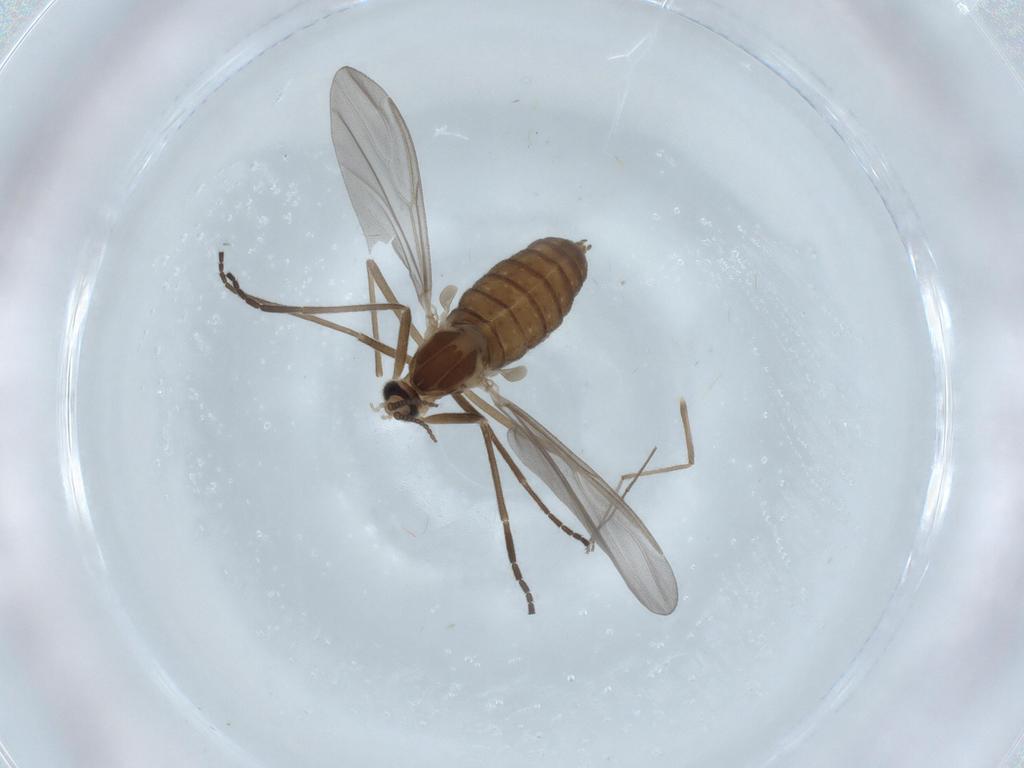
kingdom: Animalia
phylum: Arthropoda
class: Insecta
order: Diptera
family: Cecidomyiidae
